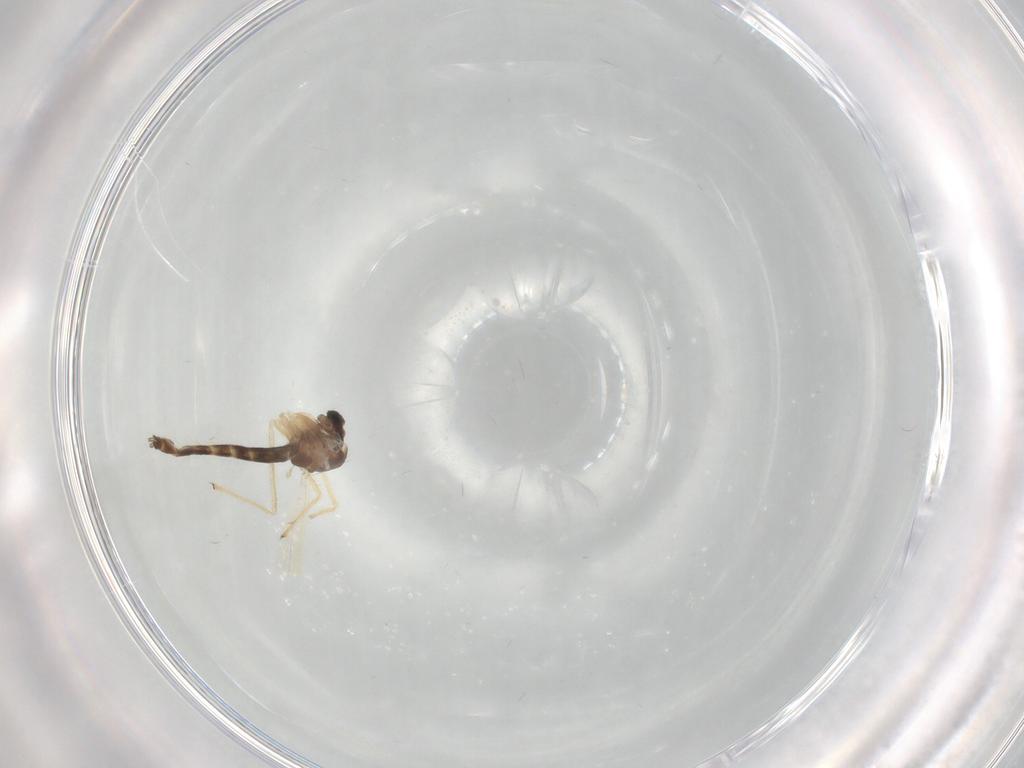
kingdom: Animalia
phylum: Arthropoda
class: Insecta
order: Diptera
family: Chironomidae
